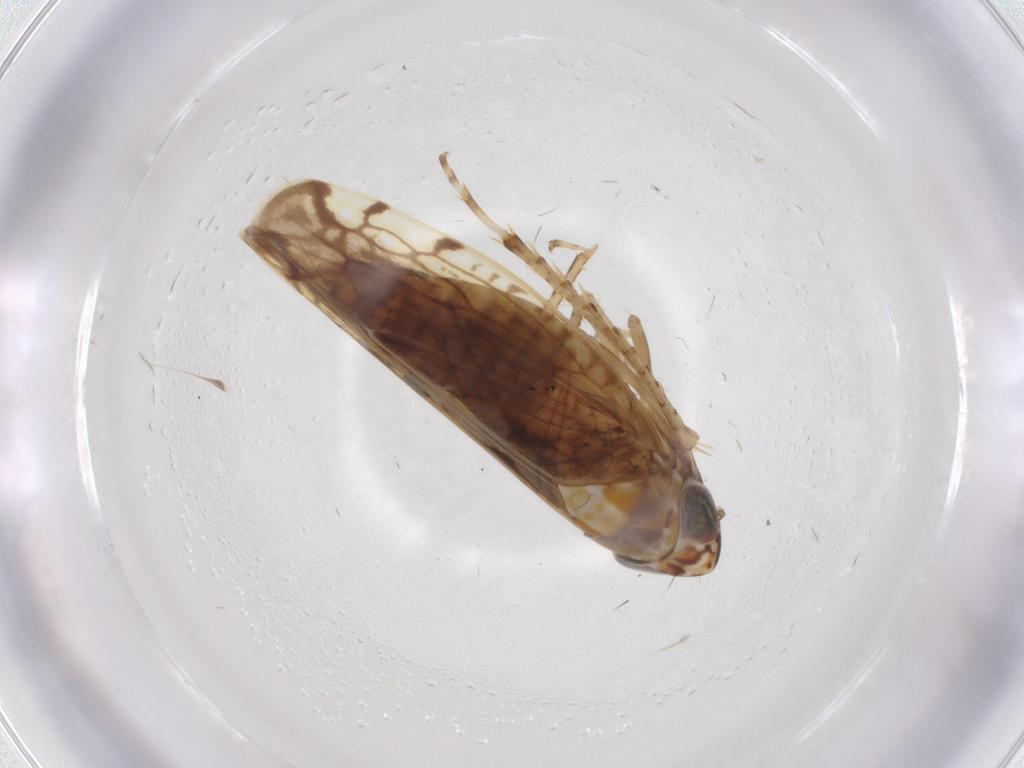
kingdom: Animalia
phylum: Arthropoda
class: Insecta
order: Hemiptera
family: Cicadellidae
